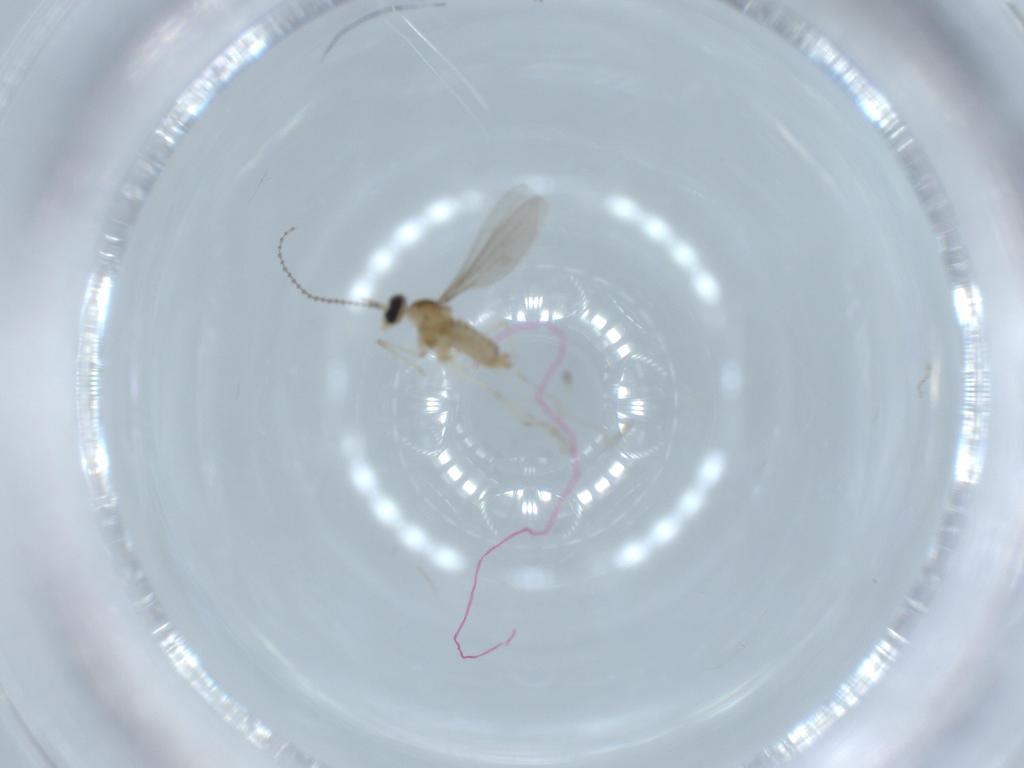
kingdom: Animalia
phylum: Arthropoda
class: Insecta
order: Diptera
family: Cecidomyiidae
